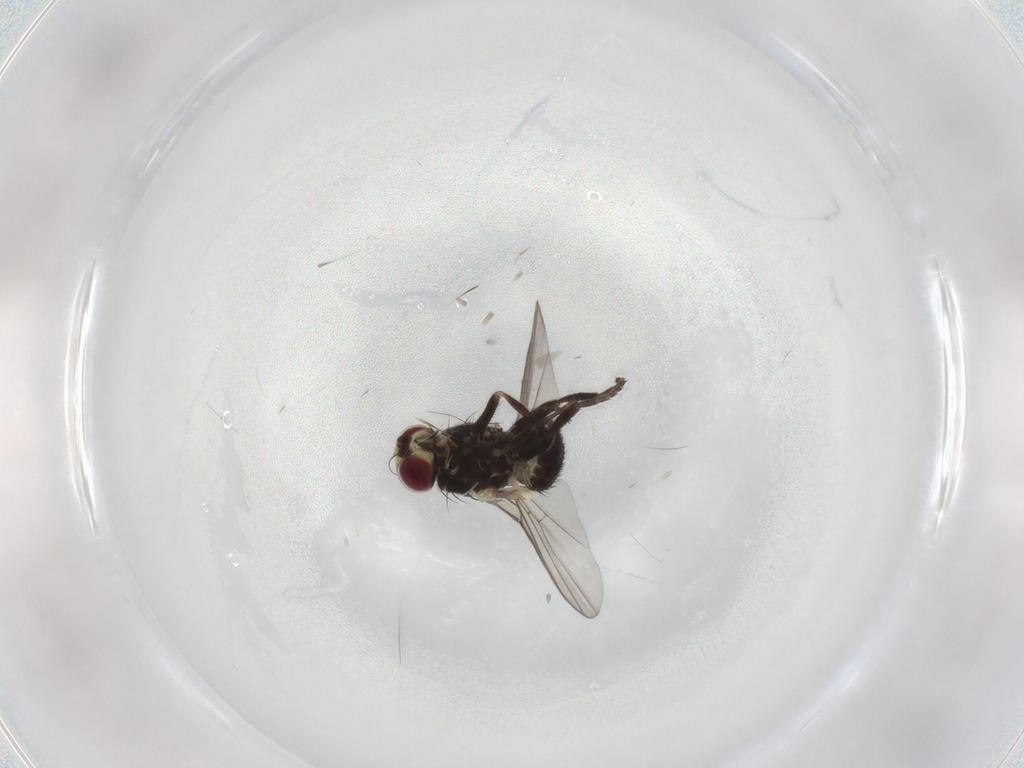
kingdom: Animalia
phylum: Arthropoda
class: Insecta
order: Diptera
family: Agromyzidae
